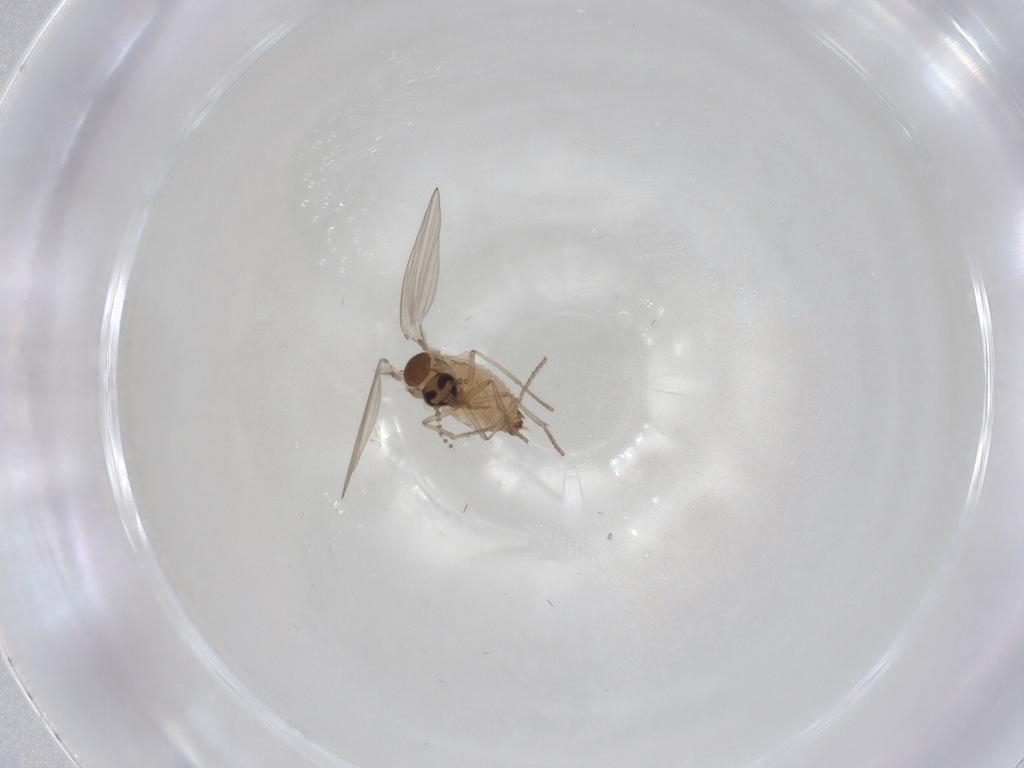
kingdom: Animalia
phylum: Arthropoda
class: Insecta
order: Diptera
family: Psychodidae
